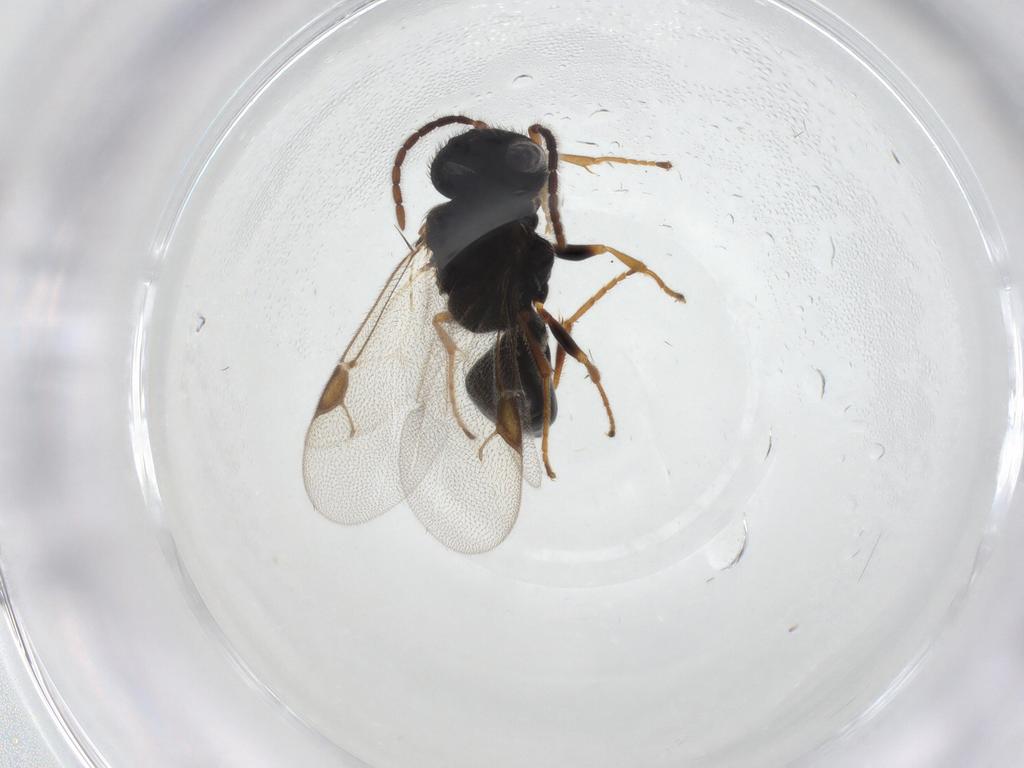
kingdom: Animalia
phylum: Arthropoda
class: Insecta
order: Hymenoptera
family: Dryinidae
